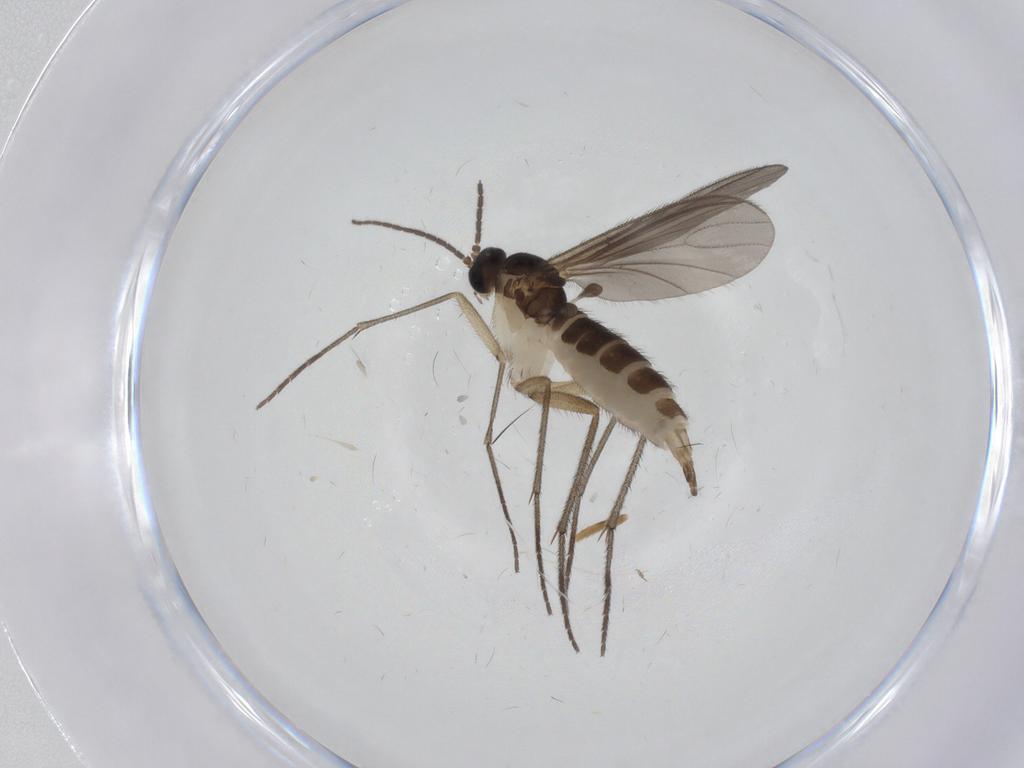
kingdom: Animalia
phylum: Arthropoda
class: Insecta
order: Diptera
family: Sciaridae
